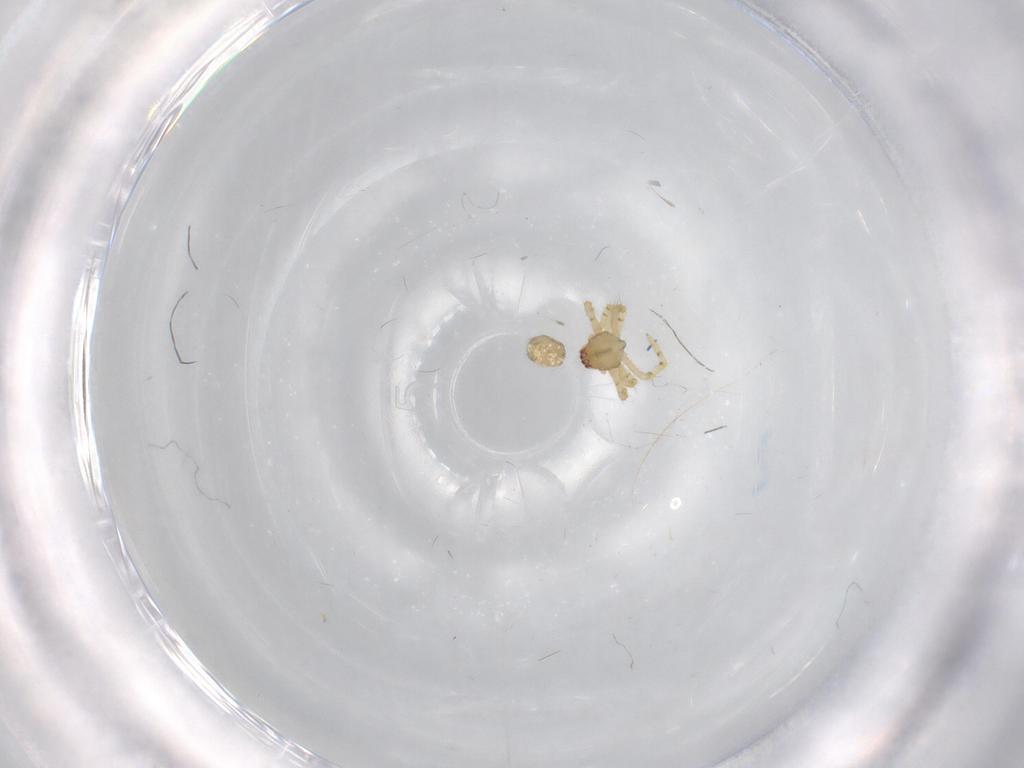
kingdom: Animalia
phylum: Arthropoda
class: Arachnida
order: Araneae
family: Theridiidae
